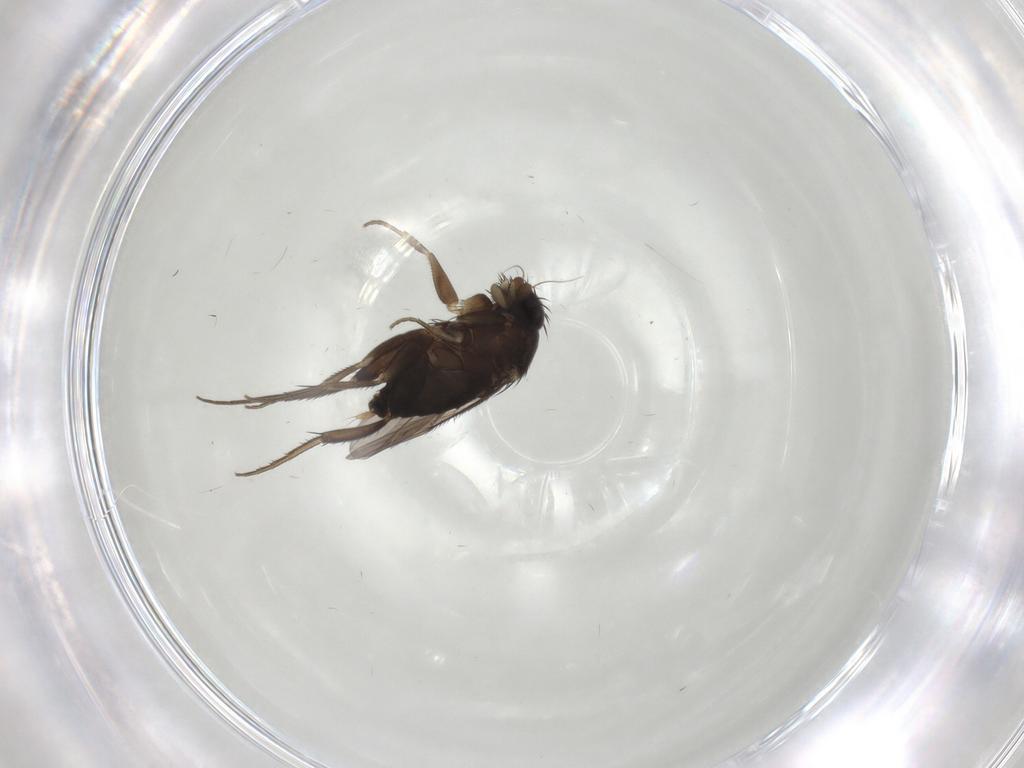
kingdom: Animalia
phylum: Arthropoda
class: Insecta
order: Diptera
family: Phoridae
